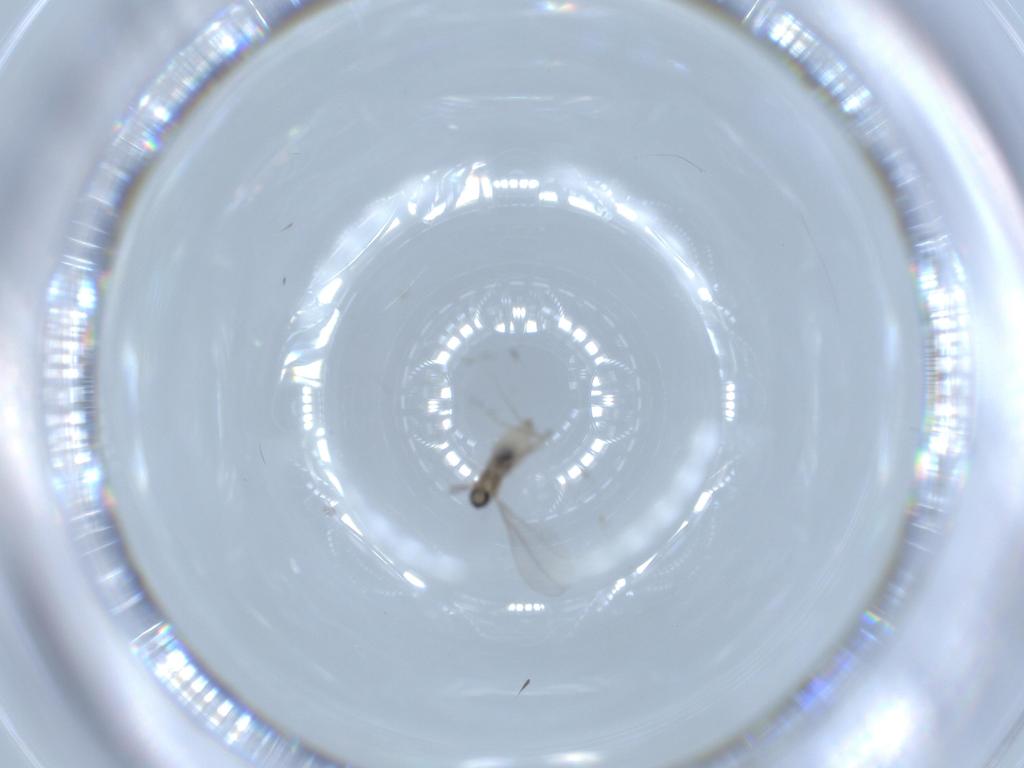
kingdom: Animalia
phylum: Arthropoda
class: Insecta
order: Diptera
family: Cecidomyiidae
